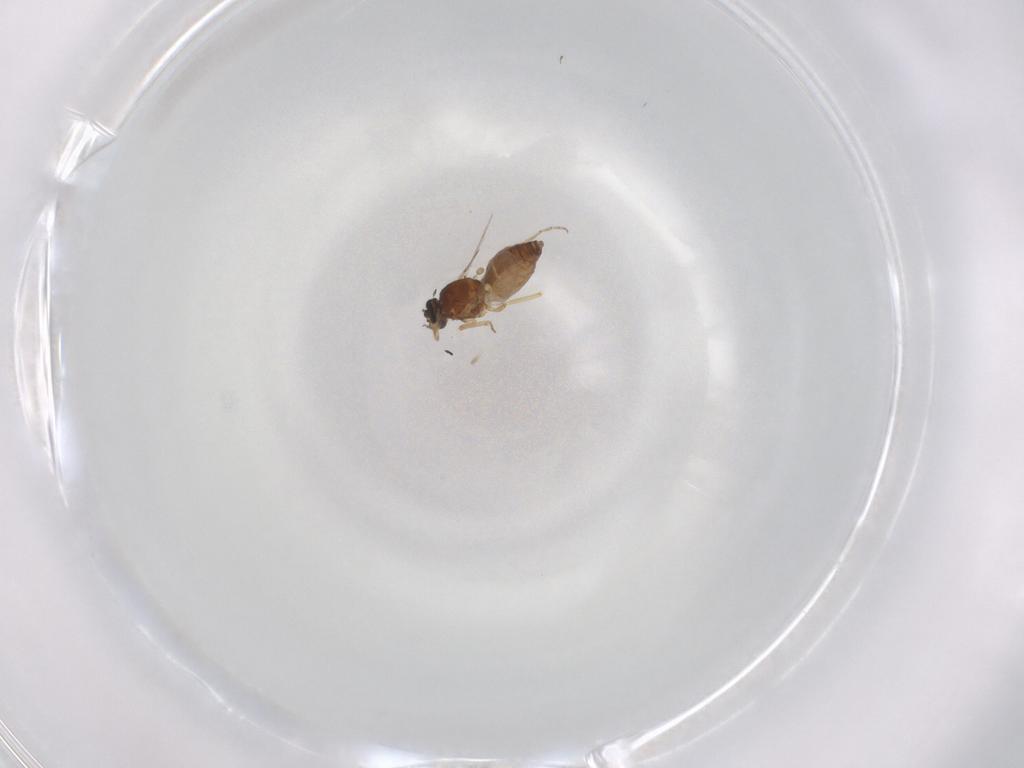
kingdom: Animalia
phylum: Arthropoda
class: Insecta
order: Diptera
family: Ceratopogonidae
